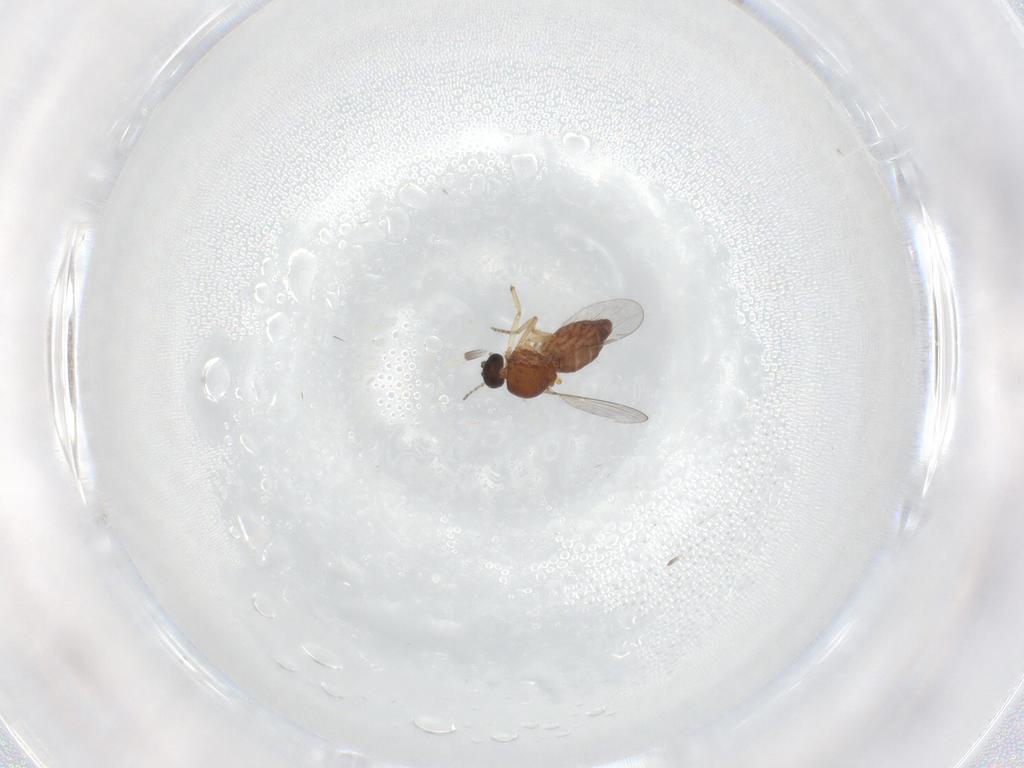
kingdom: Animalia
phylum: Arthropoda
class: Insecta
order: Diptera
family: Ceratopogonidae
